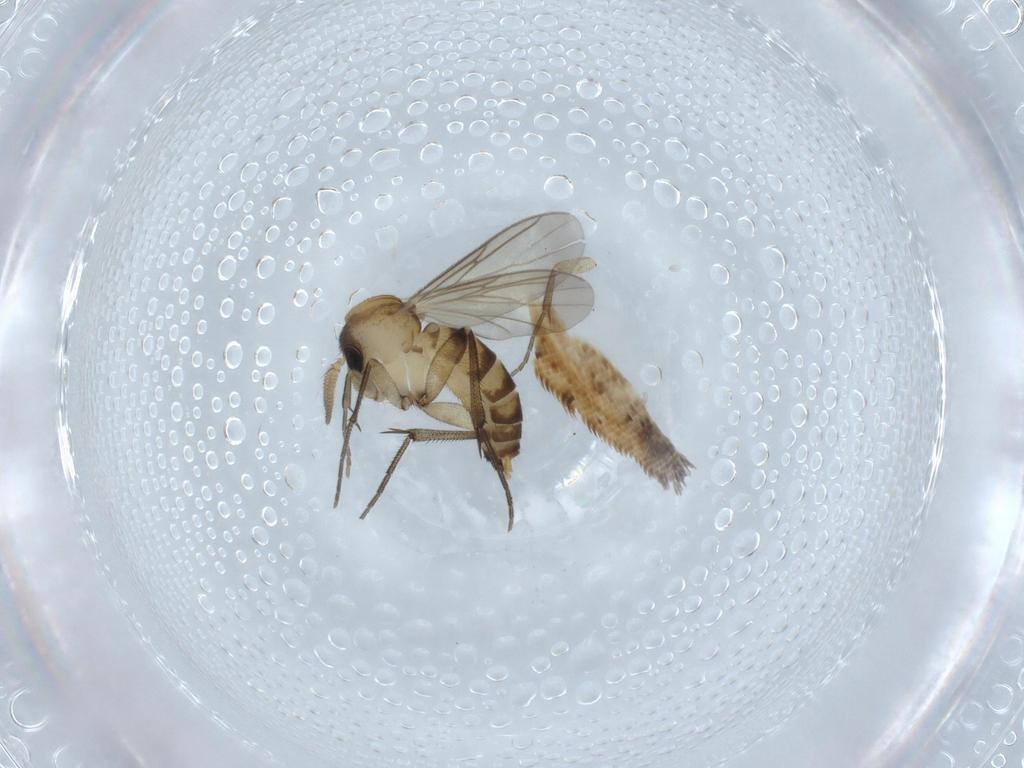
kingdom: Animalia
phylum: Arthropoda
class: Insecta
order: Diptera
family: Mycetophilidae
